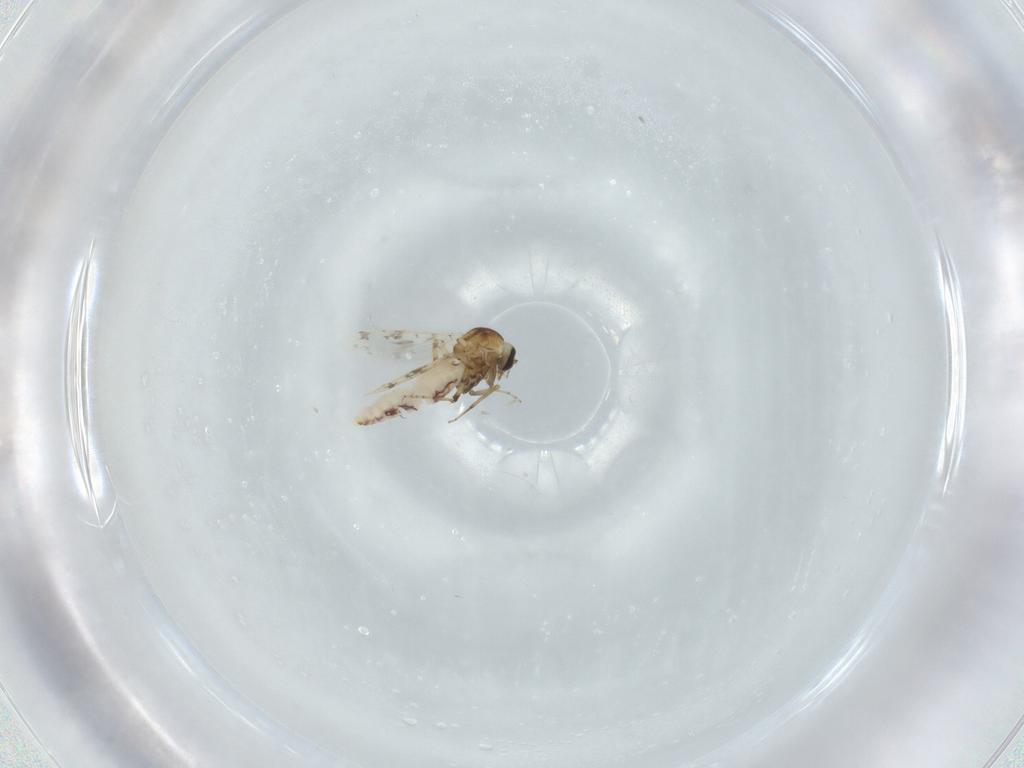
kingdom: Animalia
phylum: Arthropoda
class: Insecta
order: Diptera
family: Ceratopogonidae
